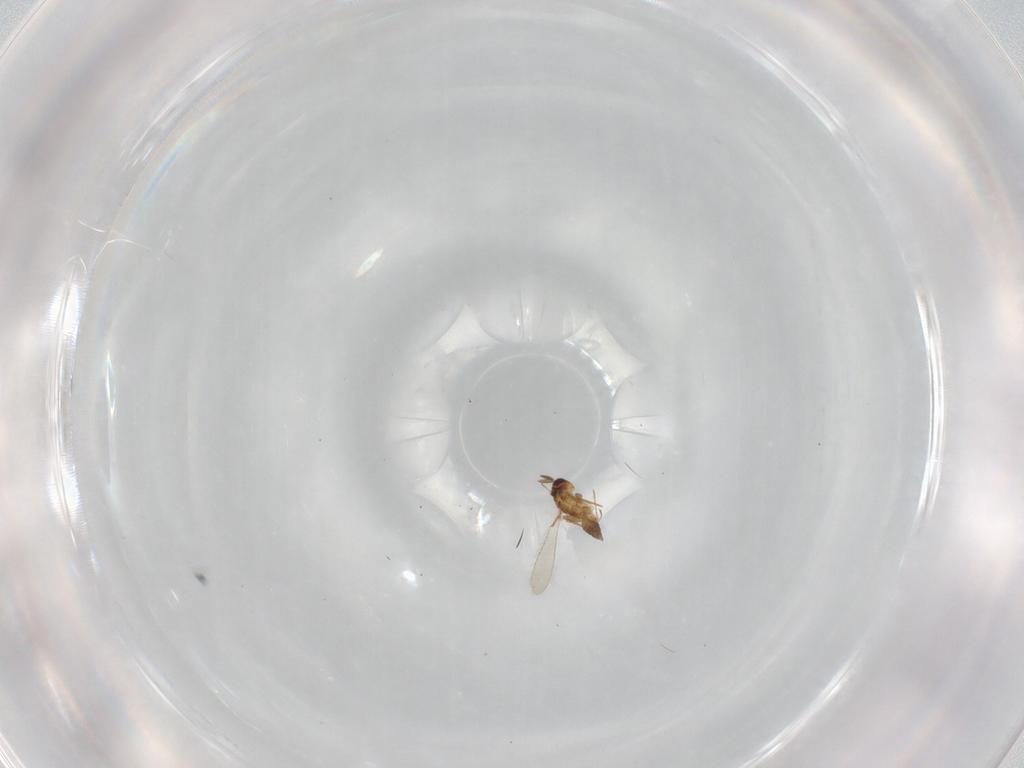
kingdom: Animalia
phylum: Arthropoda
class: Insecta
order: Hymenoptera
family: Mymaridae
